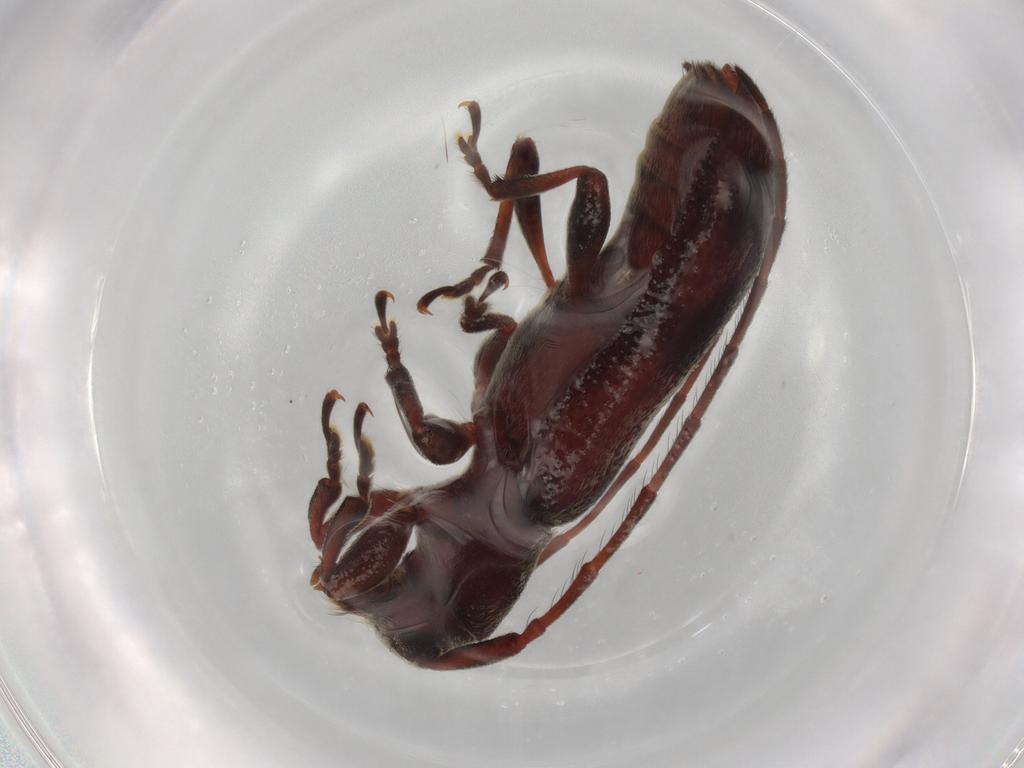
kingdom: Animalia
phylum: Arthropoda
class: Insecta
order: Coleoptera
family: Cerambycidae
